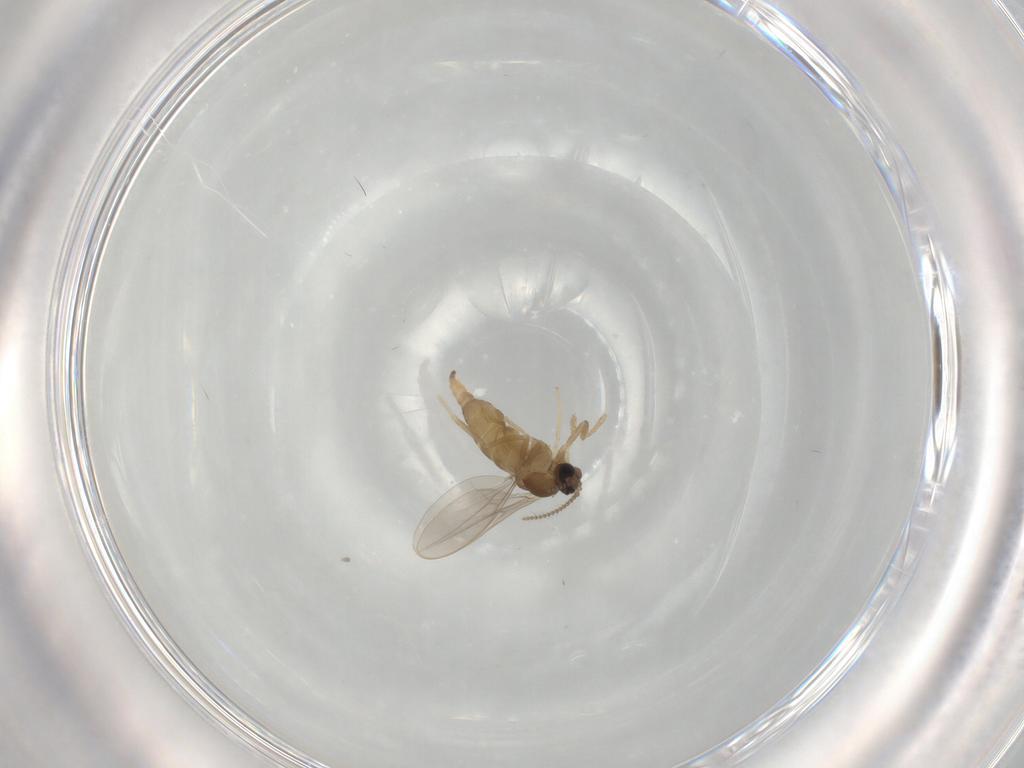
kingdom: Animalia
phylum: Arthropoda
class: Insecta
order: Diptera
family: Cecidomyiidae
